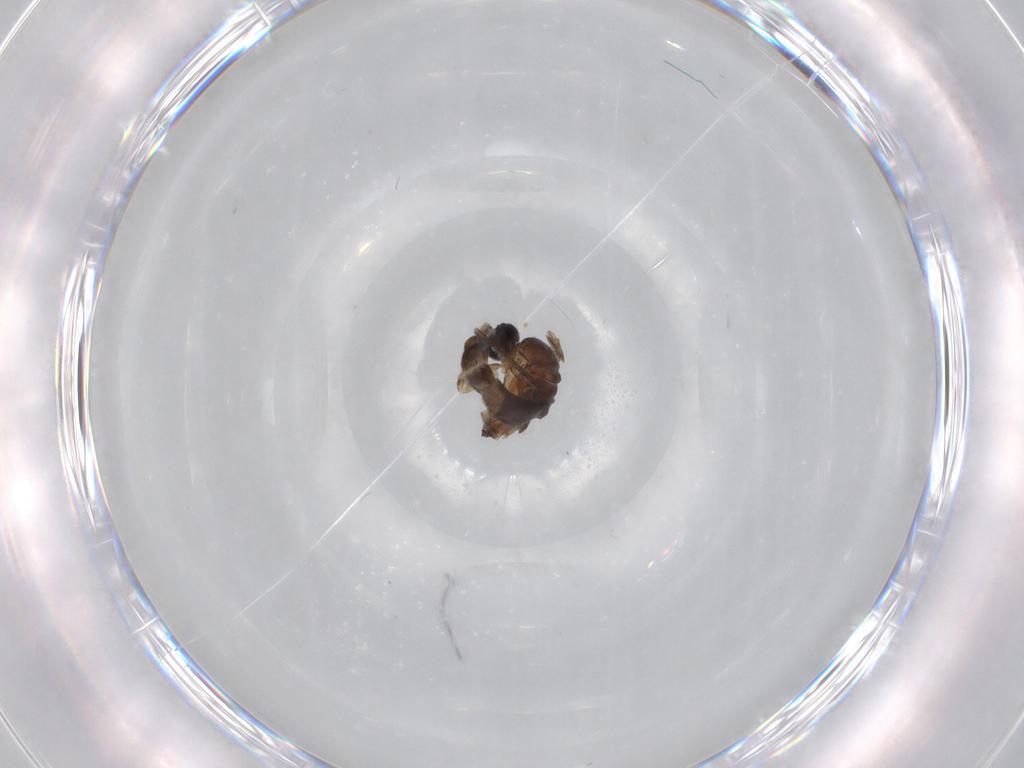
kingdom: Animalia
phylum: Arthropoda
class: Insecta
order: Diptera
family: Cecidomyiidae
